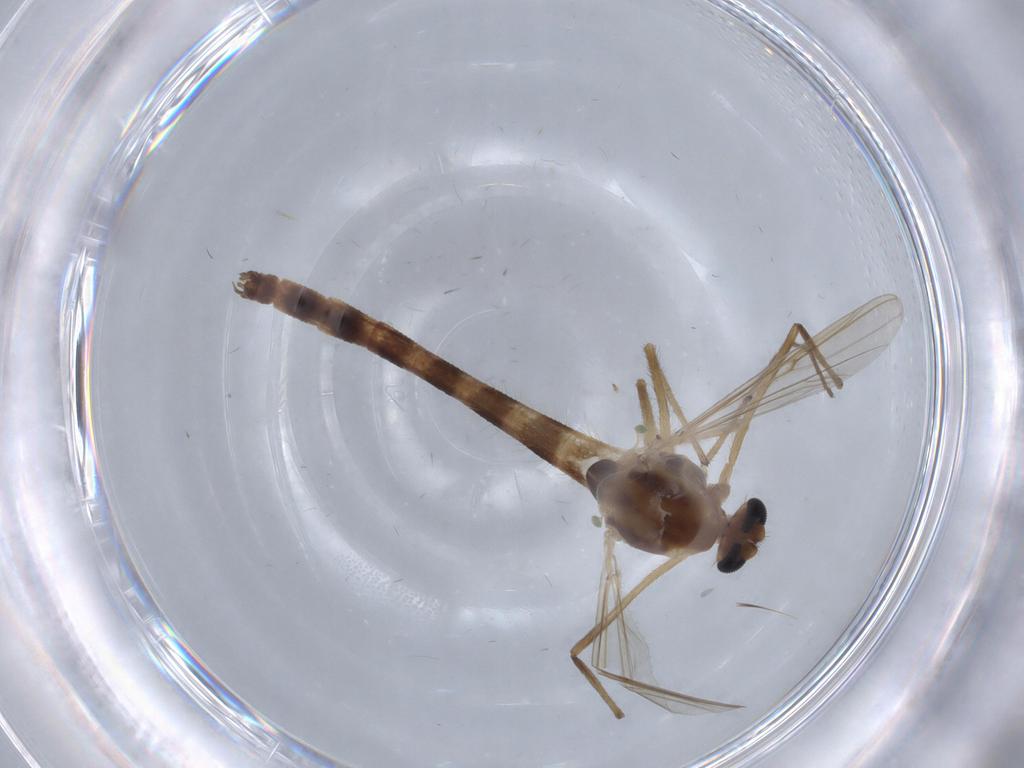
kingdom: Animalia
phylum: Arthropoda
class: Insecta
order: Diptera
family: Chironomidae
